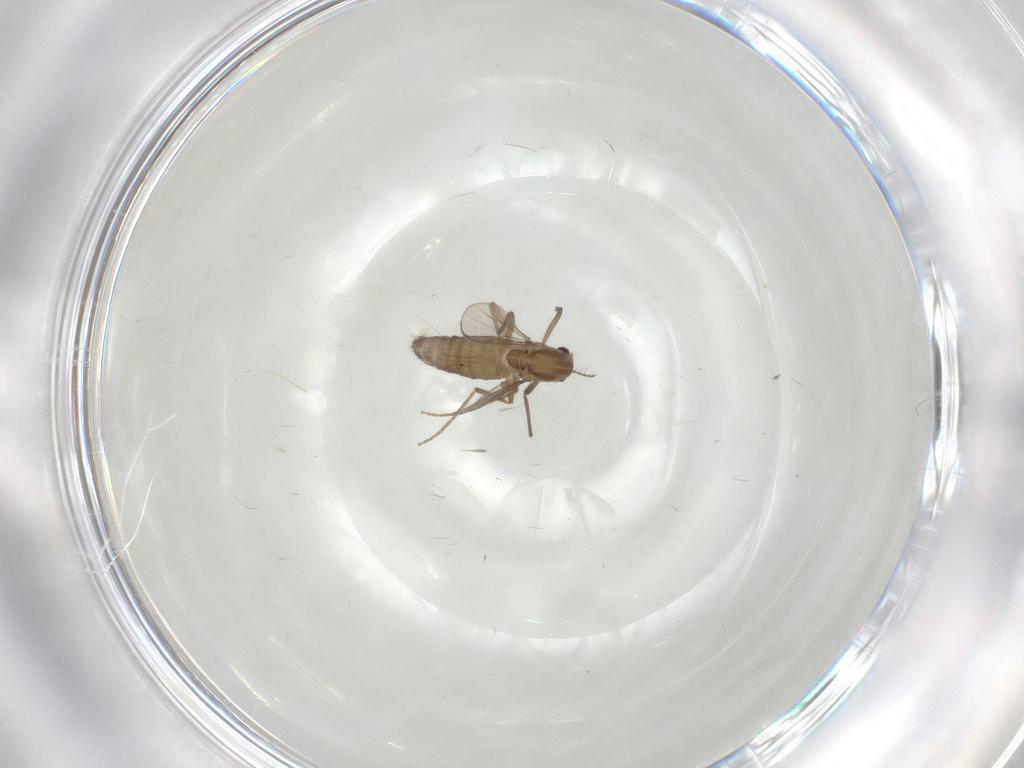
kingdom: Animalia
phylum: Arthropoda
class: Insecta
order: Diptera
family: Chironomidae
